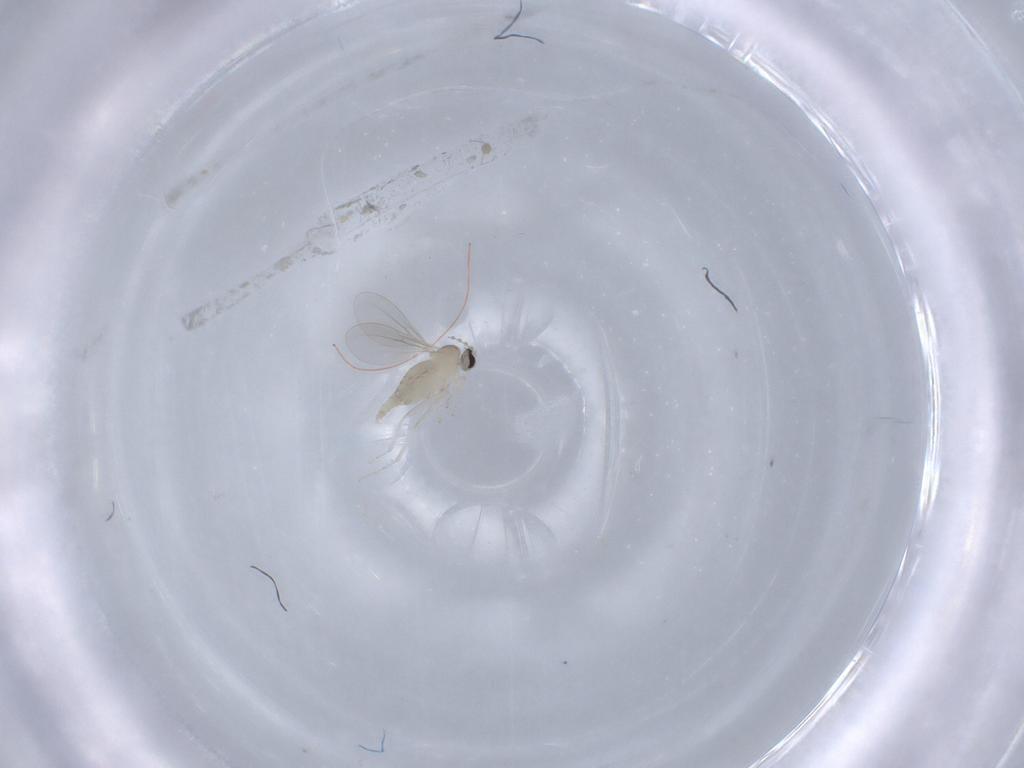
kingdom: Animalia
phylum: Arthropoda
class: Insecta
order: Diptera
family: Cecidomyiidae
